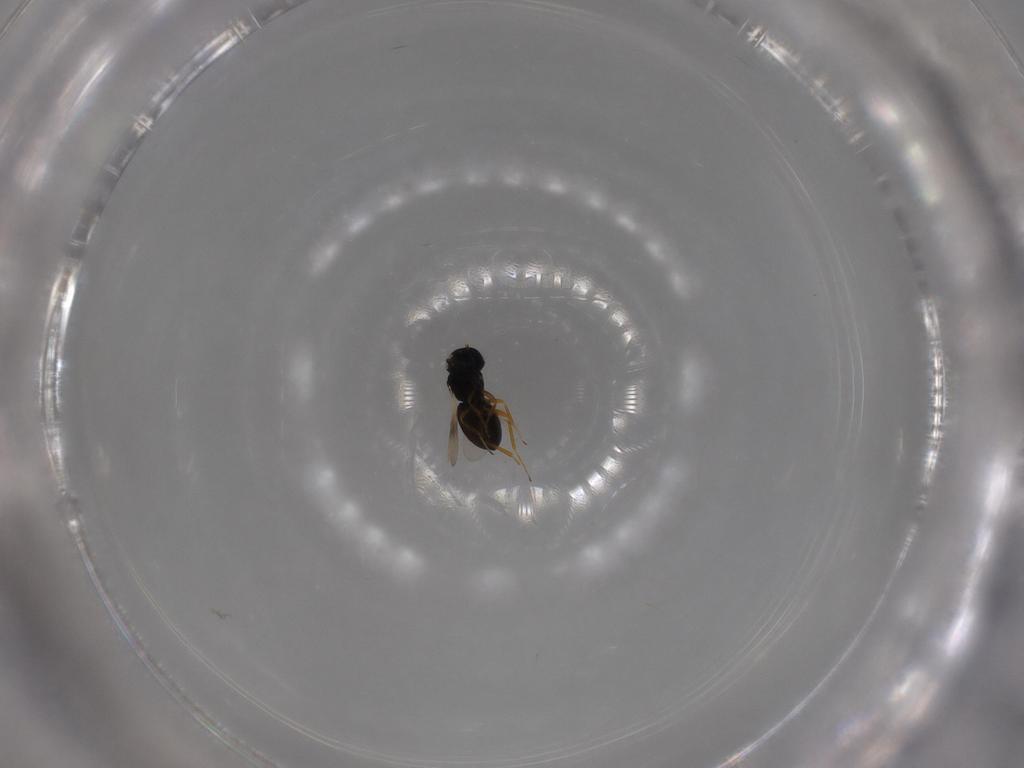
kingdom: Animalia
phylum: Arthropoda
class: Insecta
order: Hymenoptera
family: Scelionidae
